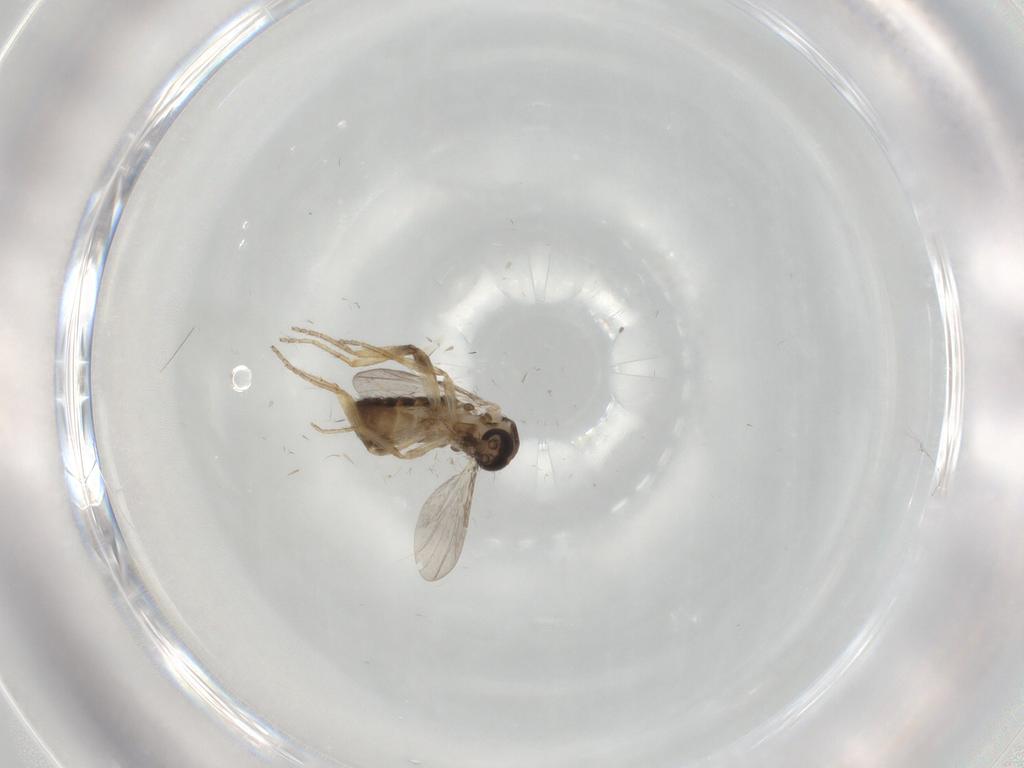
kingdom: Animalia
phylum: Arthropoda
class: Insecta
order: Diptera
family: Ceratopogonidae
